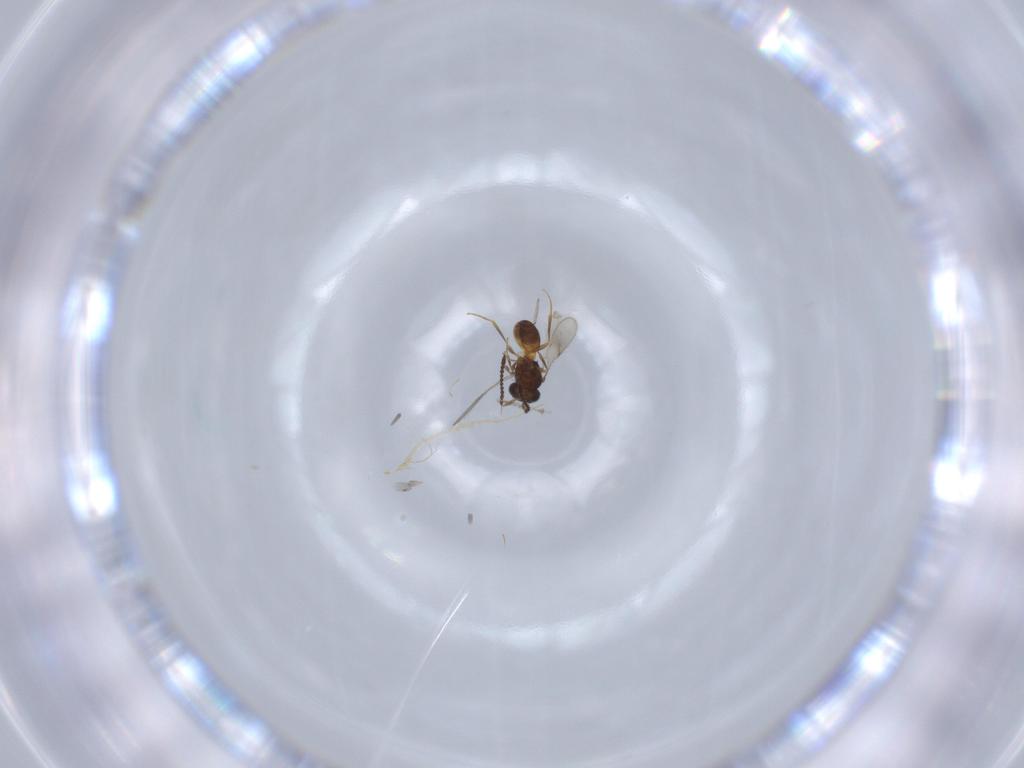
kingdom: Animalia
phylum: Arthropoda
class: Insecta
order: Hymenoptera
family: Scelionidae
